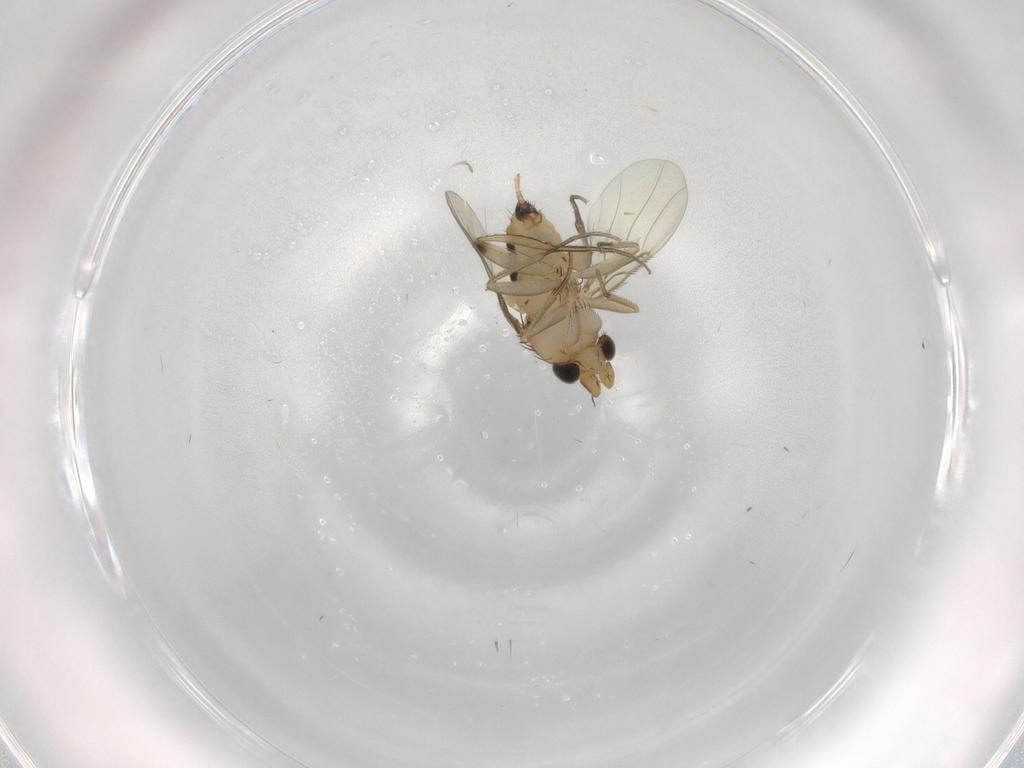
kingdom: Animalia
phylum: Arthropoda
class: Insecta
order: Diptera
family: Phoridae
